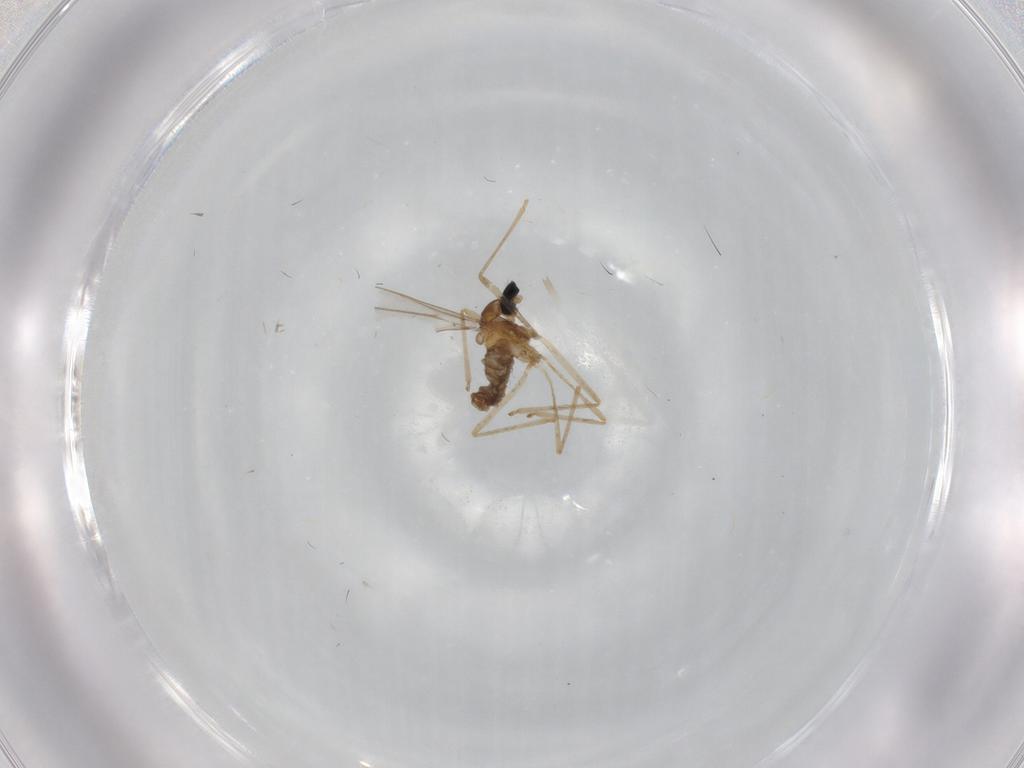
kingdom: Animalia
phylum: Arthropoda
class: Insecta
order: Diptera
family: Cecidomyiidae
